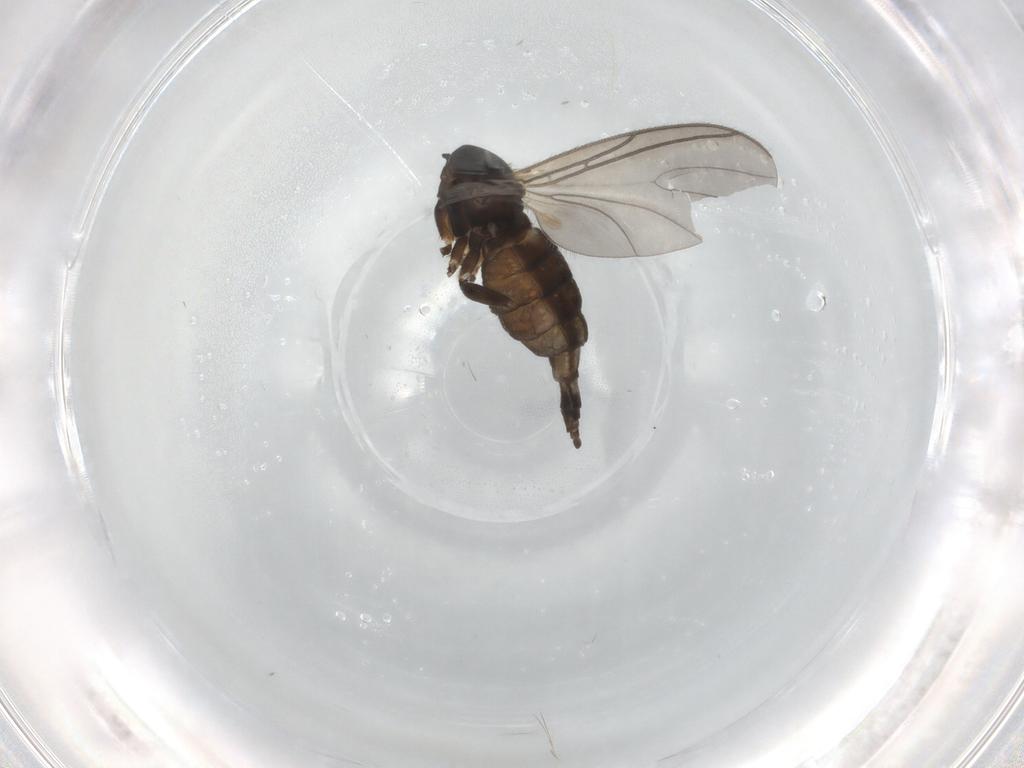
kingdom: Animalia
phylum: Arthropoda
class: Insecta
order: Diptera
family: Sciaridae
